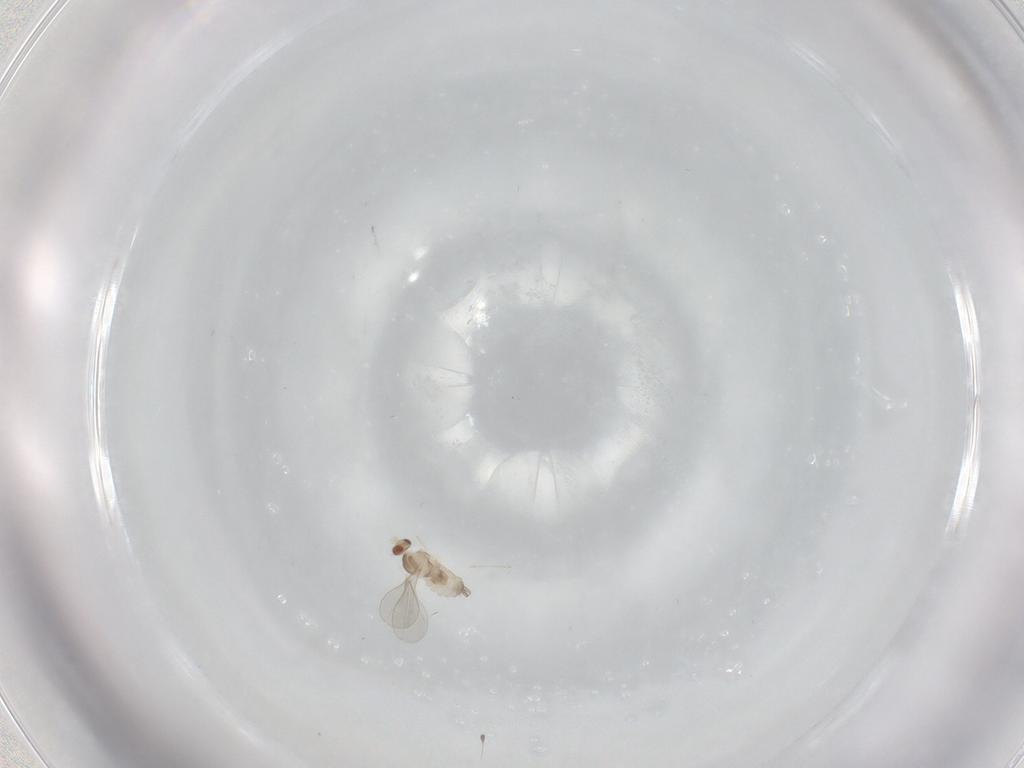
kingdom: Animalia
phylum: Arthropoda
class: Insecta
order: Diptera
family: Cecidomyiidae
